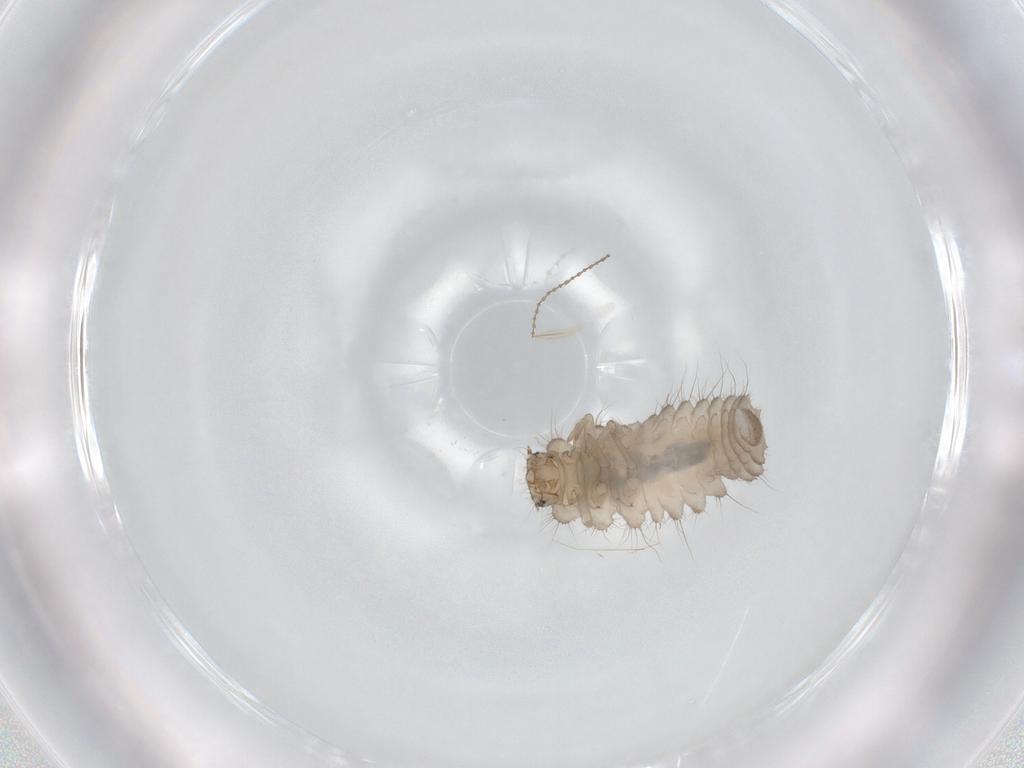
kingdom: Animalia
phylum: Arthropoda
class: Insecta
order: Coleoptera
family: Coccinellidae
